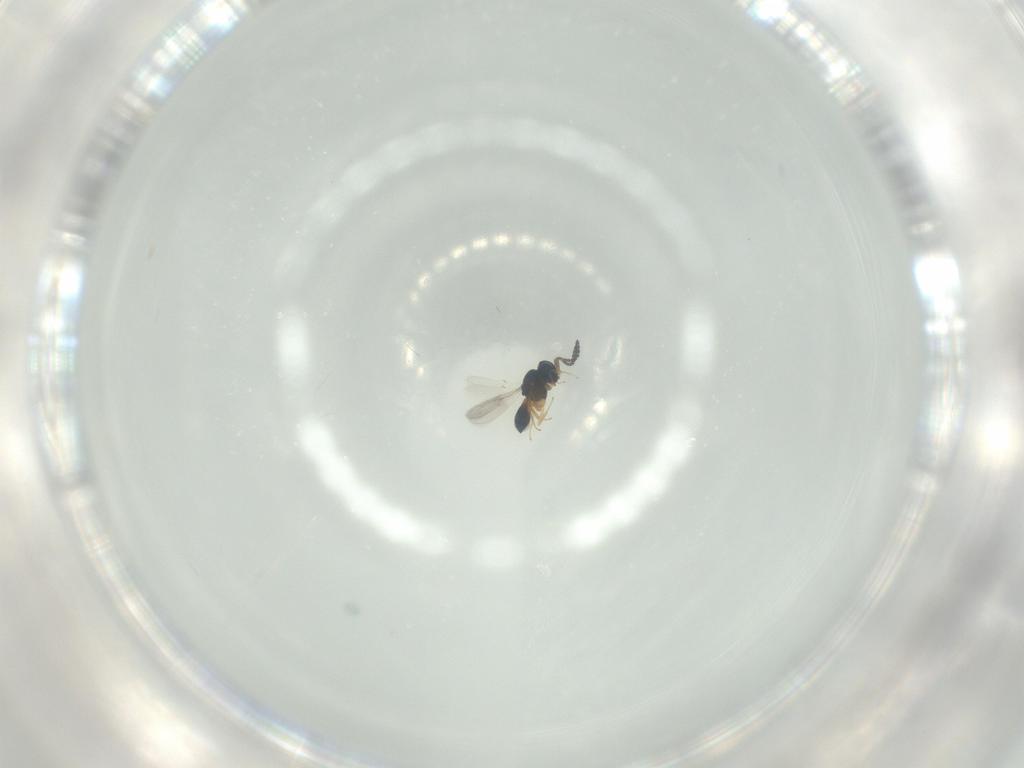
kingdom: Animalia
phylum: Arthropoda
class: Insecta
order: Hymenoptera
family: Scelionidae
